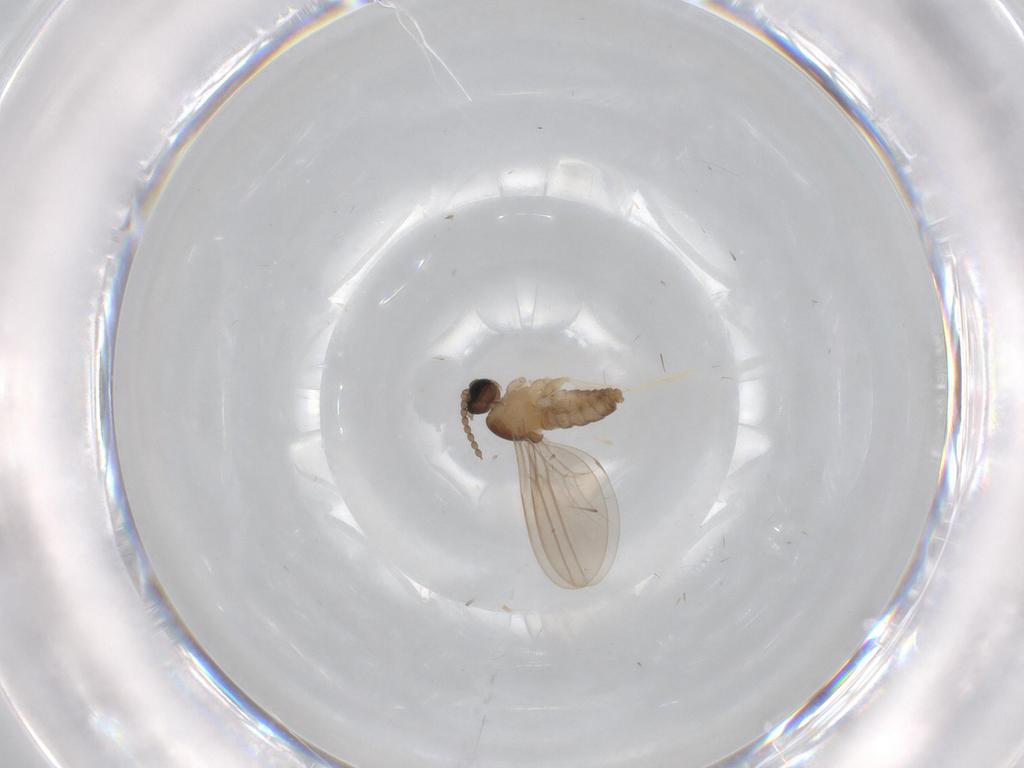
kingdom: Animalia
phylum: Arthropoda
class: Insecta
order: Diptera
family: Cecidomyiidae
